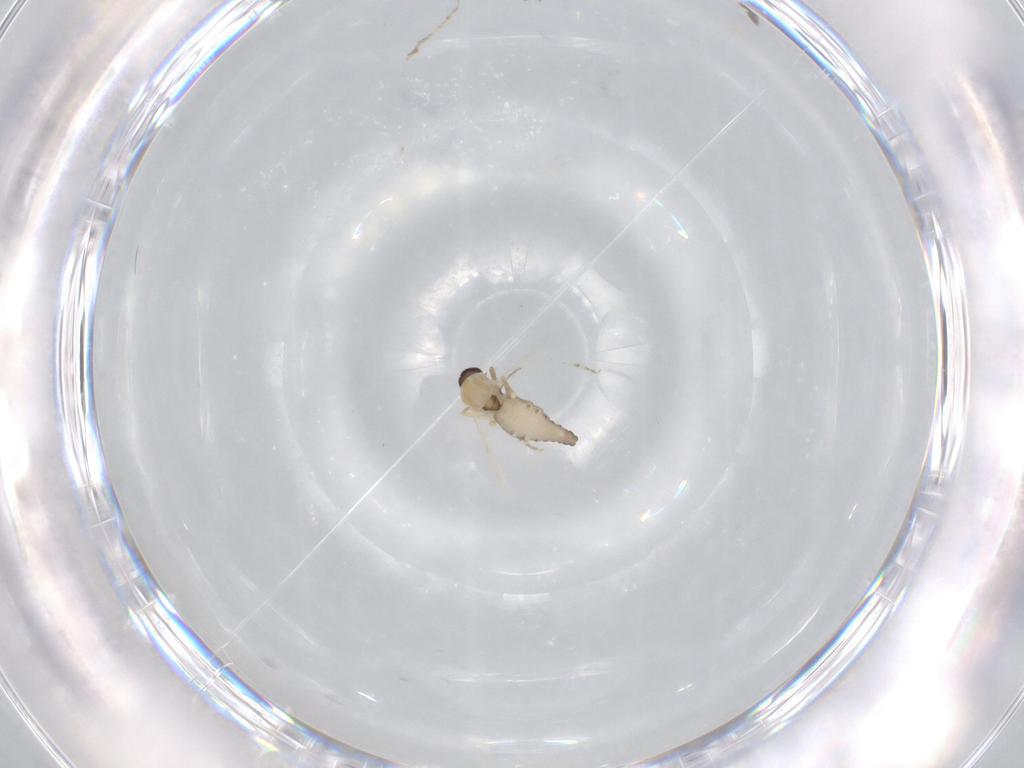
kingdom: Animalia
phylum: Arthropoda
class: Insecta
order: Diptera
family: Ceratopogonidae
